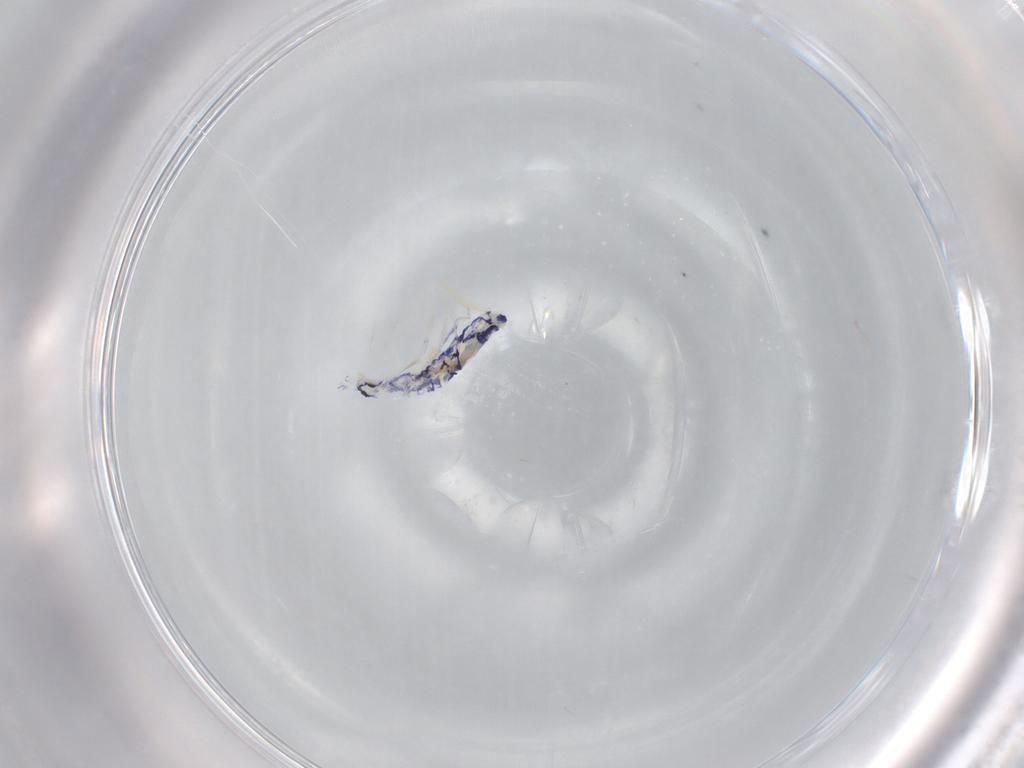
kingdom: Animalia
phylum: Arthropoda
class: Collembola
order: Entomobryomorpha
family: Entomobryidae
